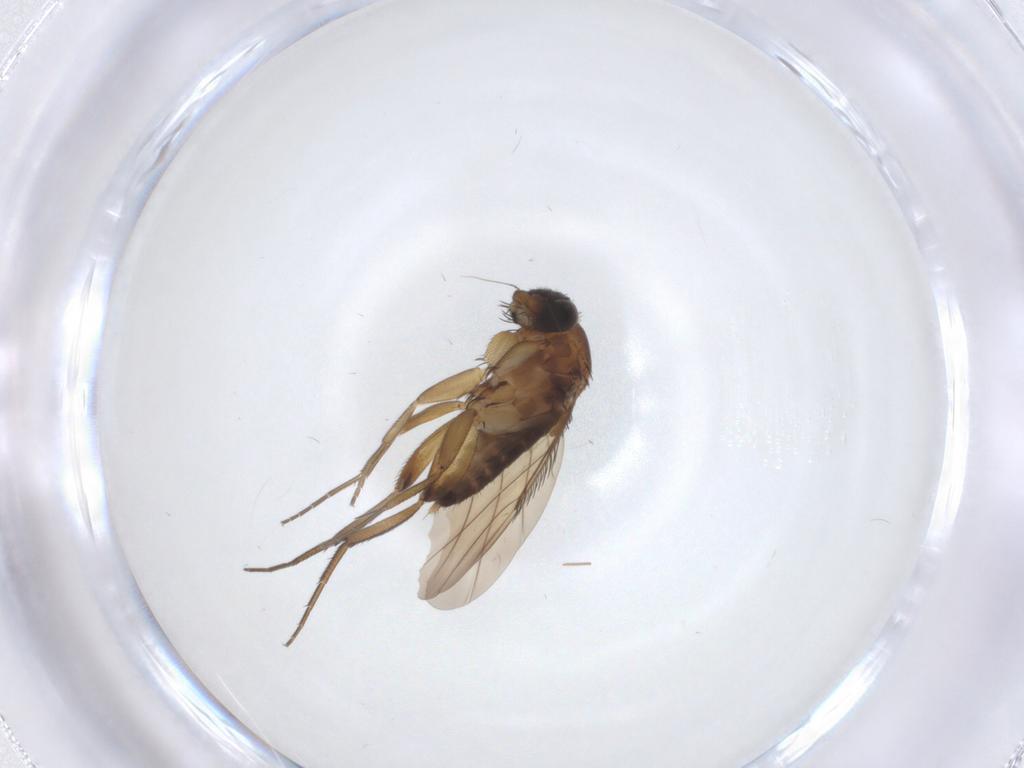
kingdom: Animalia
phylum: Arthropoda
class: Insecta
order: Diptera
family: Phoridae
